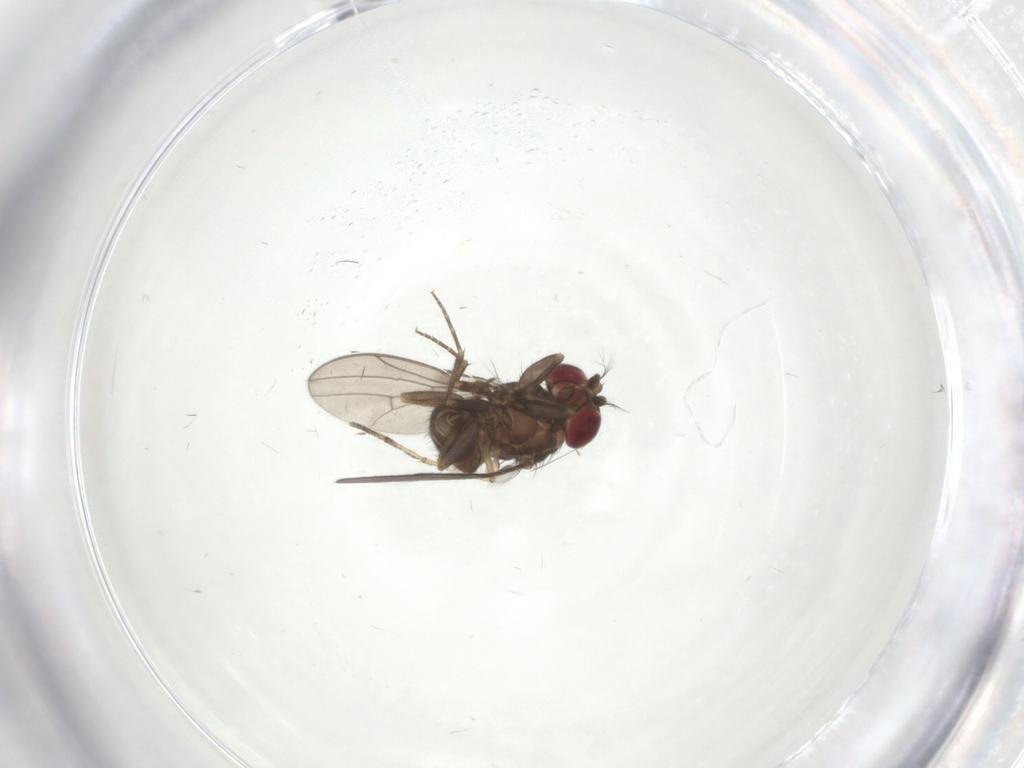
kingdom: Animalia
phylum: Arthropoda
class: Insecta
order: Diptera
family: Ephydridae
